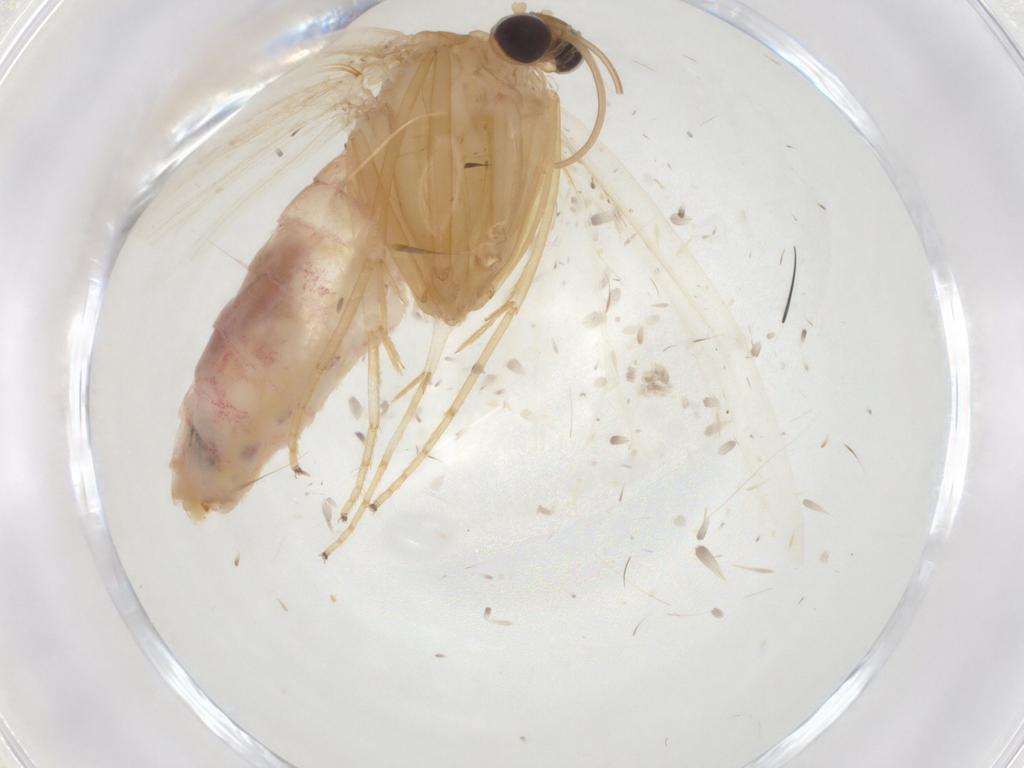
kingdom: Animalia
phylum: Arthropoda
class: Insecta
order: Lepidoptera
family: Geometridae
